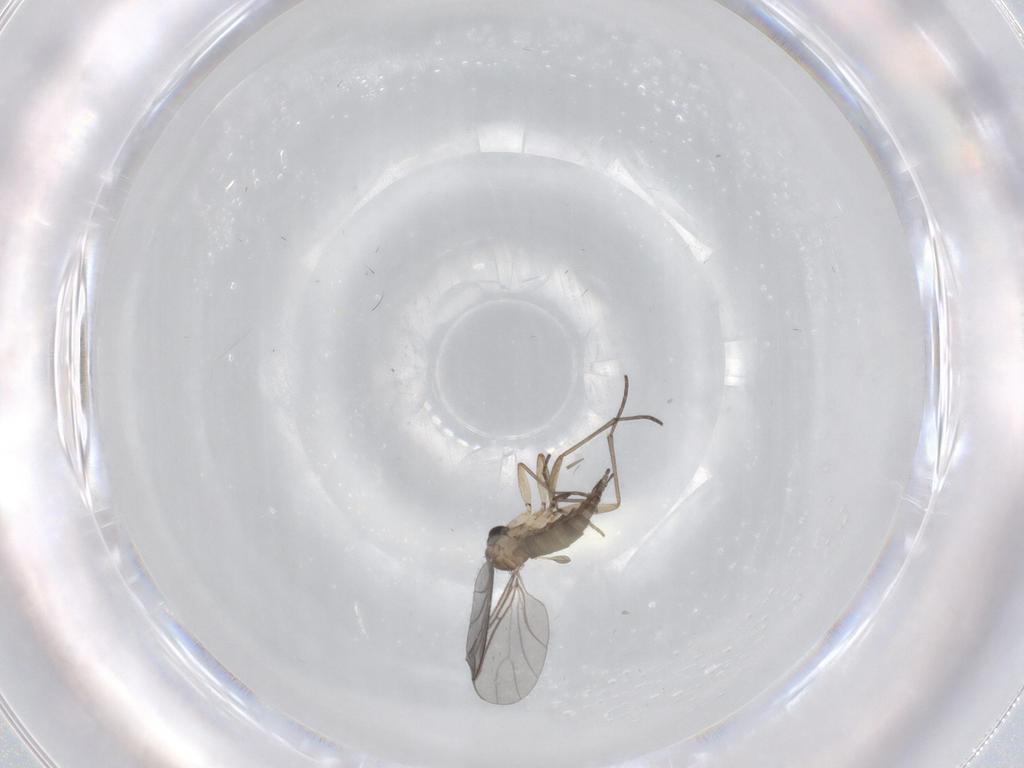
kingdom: Animalia
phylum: Arthropoda
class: Insecta
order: Diptera
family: Sciaridae
